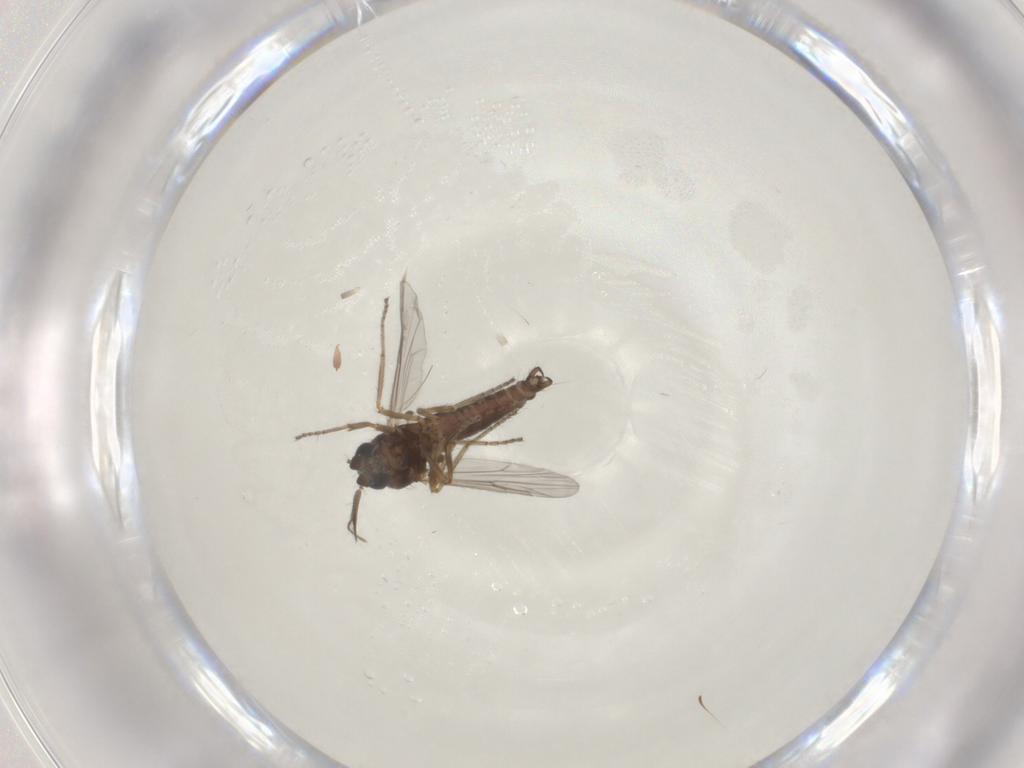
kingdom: Animalia
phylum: Arthropoda
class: Insecta
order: Diptera
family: Ceratopogonidae
